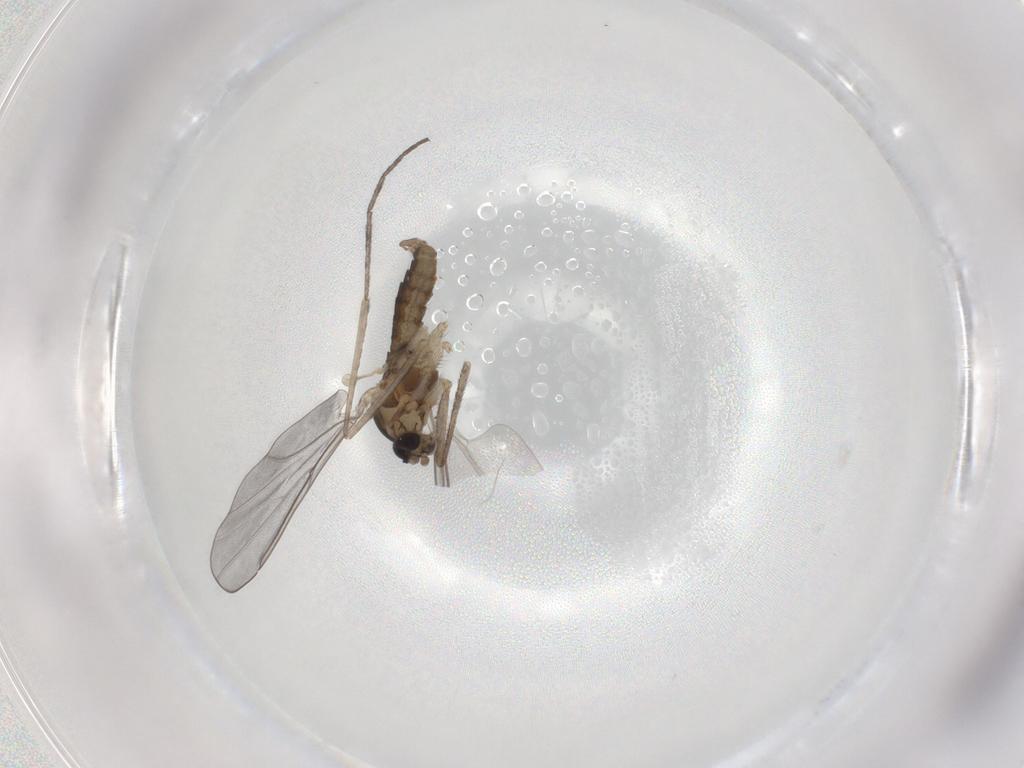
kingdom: Animalia
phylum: Arthropoda
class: Insecta
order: Diptera
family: Cecidomyiidae
